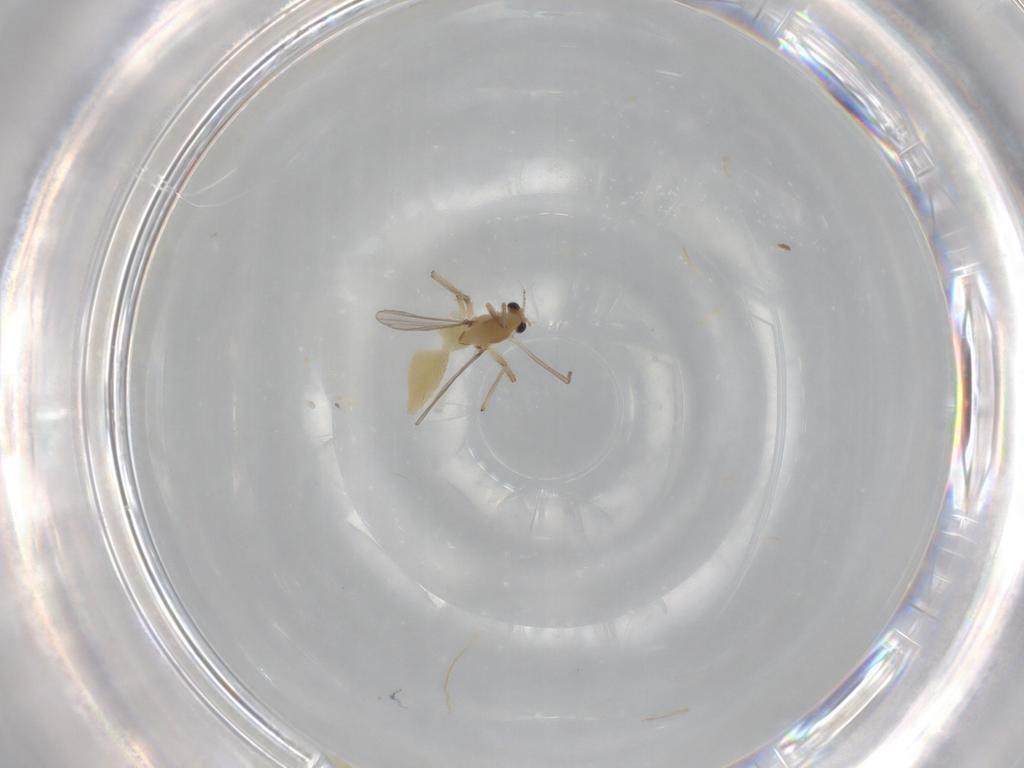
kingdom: Animalia
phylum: Arthropoda
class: Insecta
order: Diptera
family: Chironomidae
